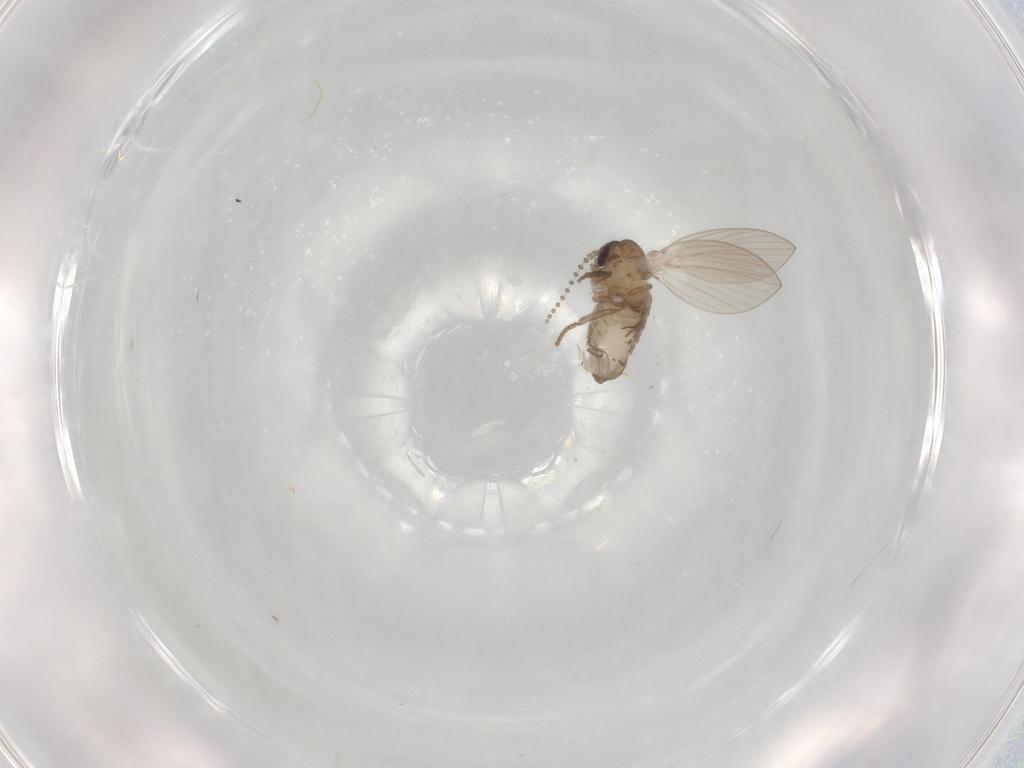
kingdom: Animalia
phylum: Arthropoda
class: Insecta
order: Diptera
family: Psychodidae
